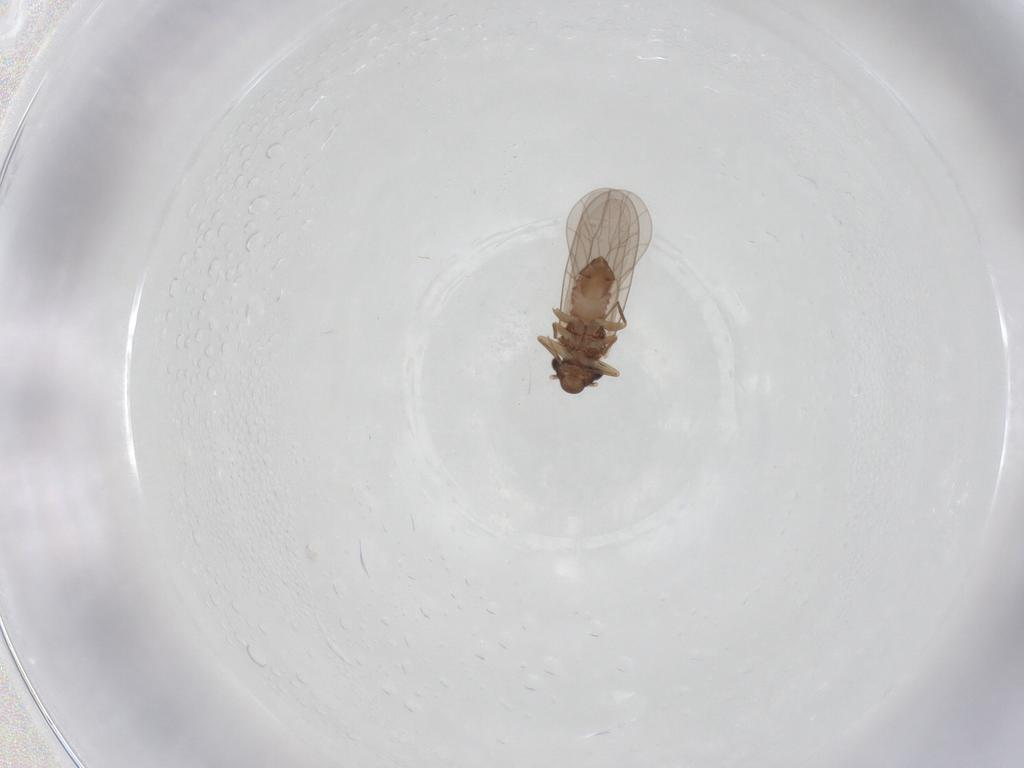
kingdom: Animalia
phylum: Arthropoda
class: Insecta
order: Psocodea
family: Lepidopsocidae
